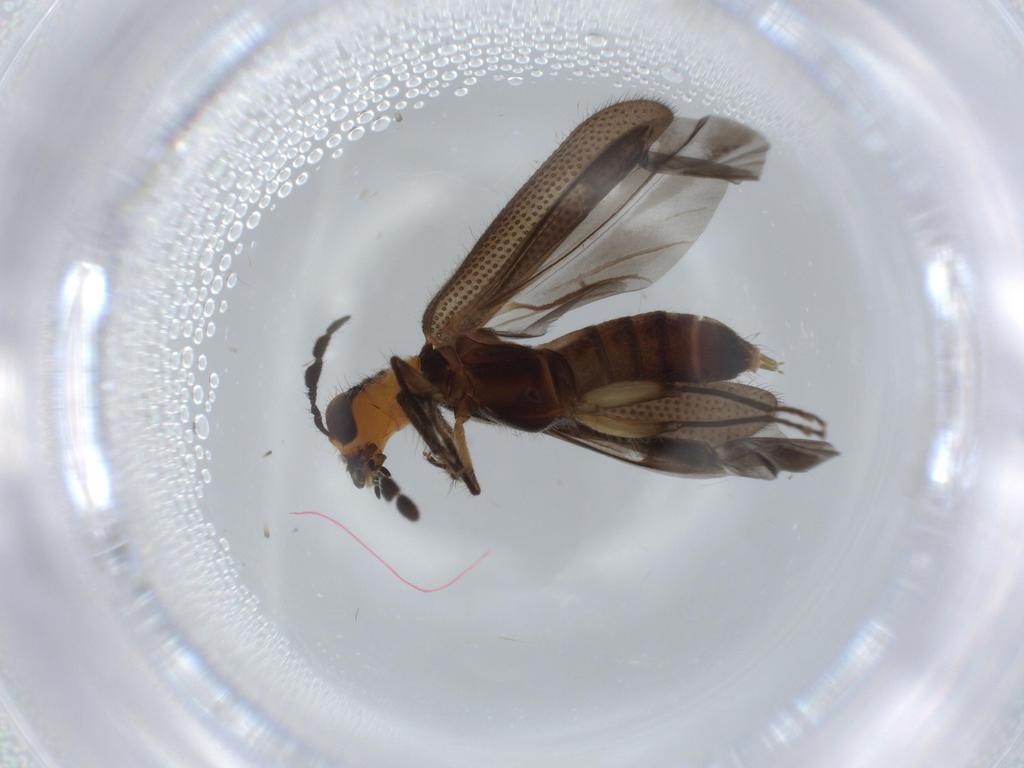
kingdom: Animalia
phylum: Arthropoda
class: Insecta
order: Coleoptera
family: Cleridae
